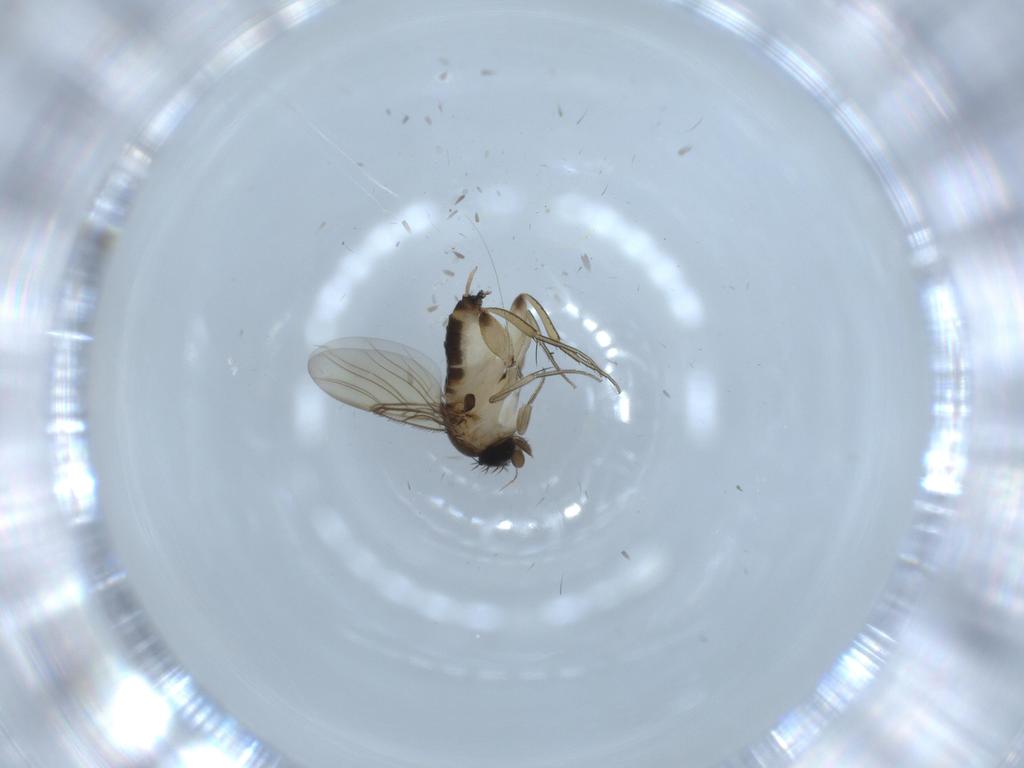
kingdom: Animalia
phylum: Arthropoda
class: Insecta
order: Diptera
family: Phoridae
